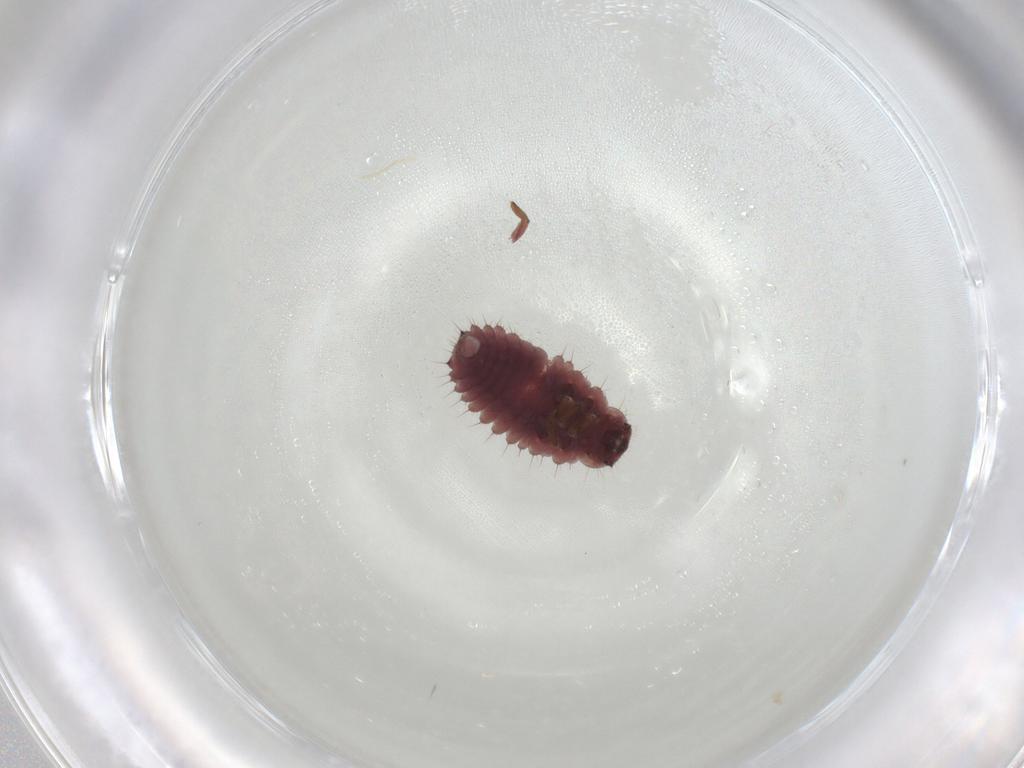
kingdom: Animalia
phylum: Arthropoda
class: Insecta
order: Coleoptera
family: Coccinellidae
